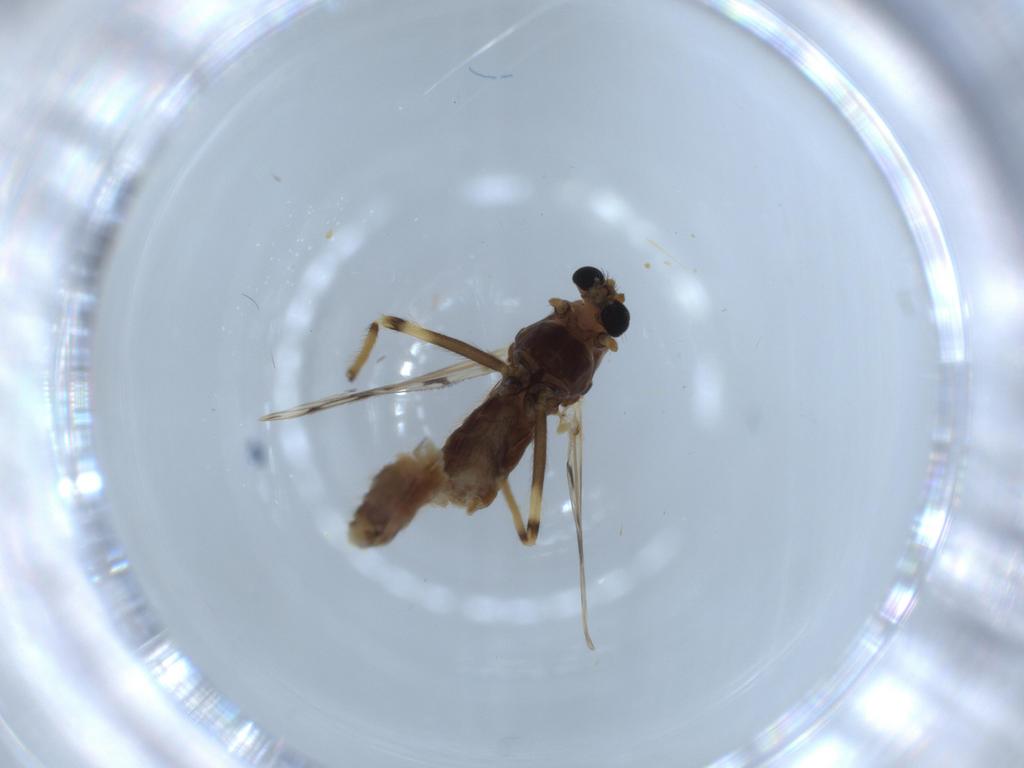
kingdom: Animalia
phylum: Arthropoda
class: Insecta
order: Diptera
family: Chironomidae
